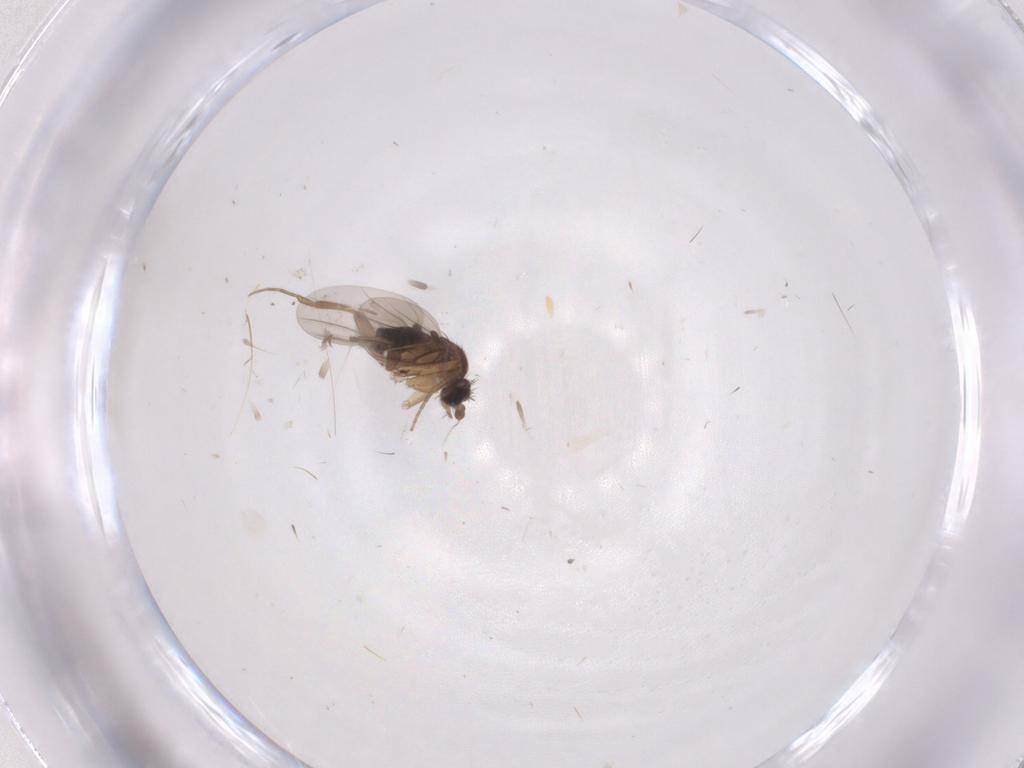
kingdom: Animalia
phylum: Arthropoda
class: Insecta
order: Diptera
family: Chironomidae
